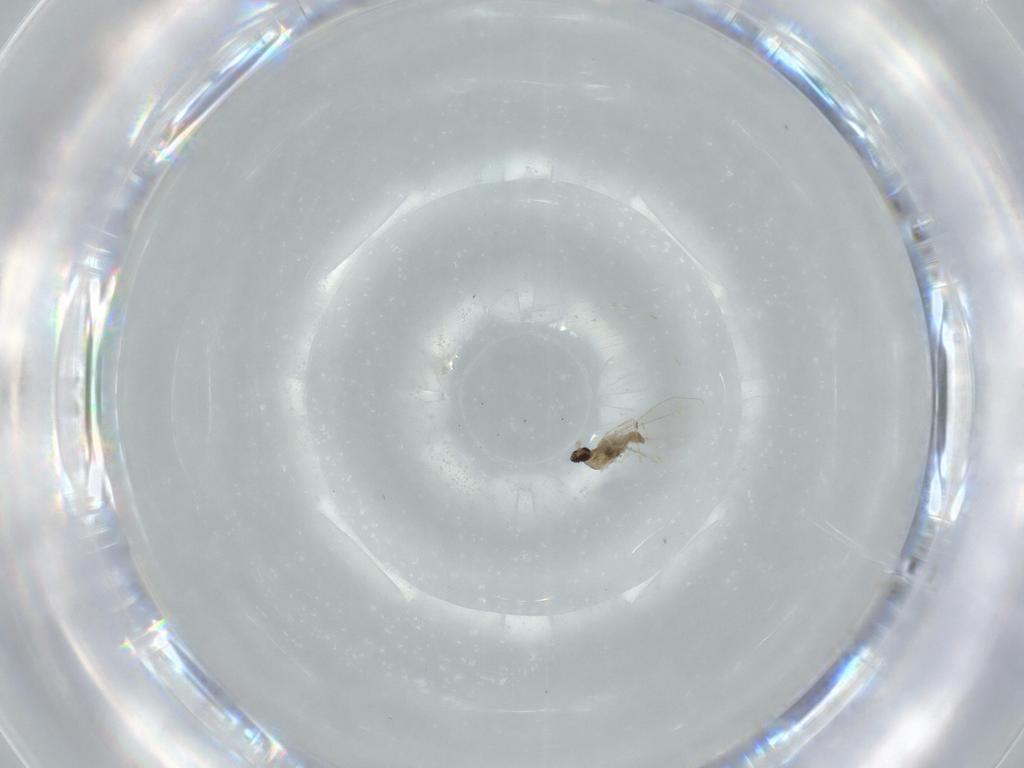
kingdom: Animalia
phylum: Arthropoda
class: Insecta
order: Diptera
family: Cecidomyiidae
